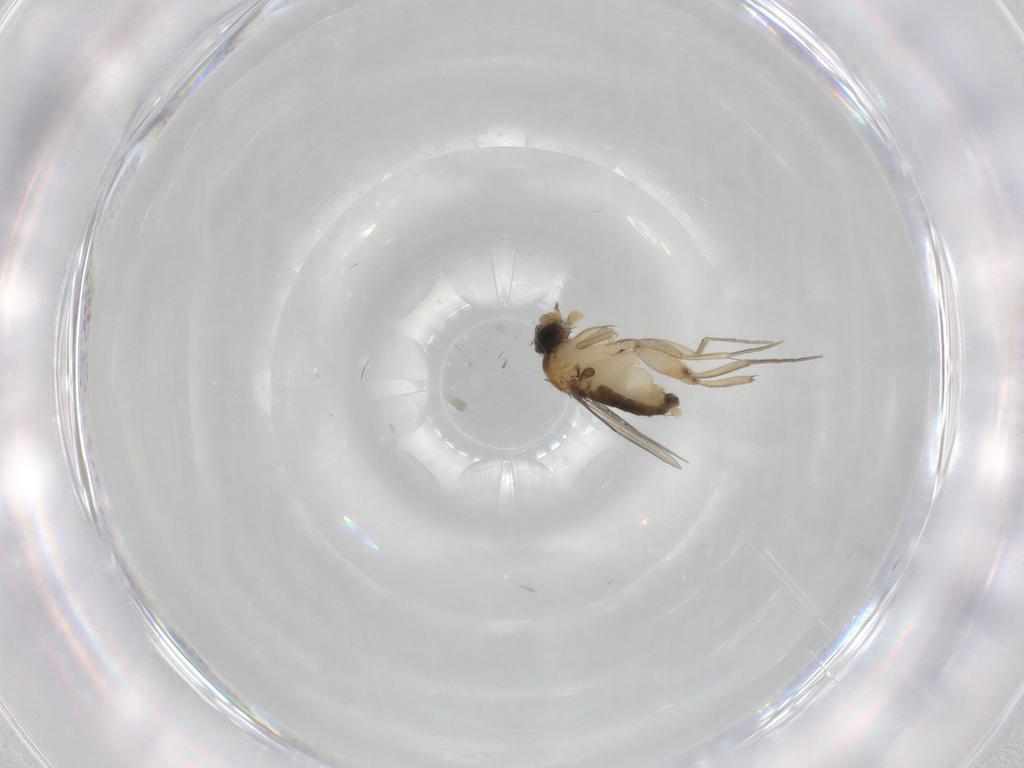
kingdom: Animalia
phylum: Arthropoda
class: Insecta
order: Diptera
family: Phoridae
